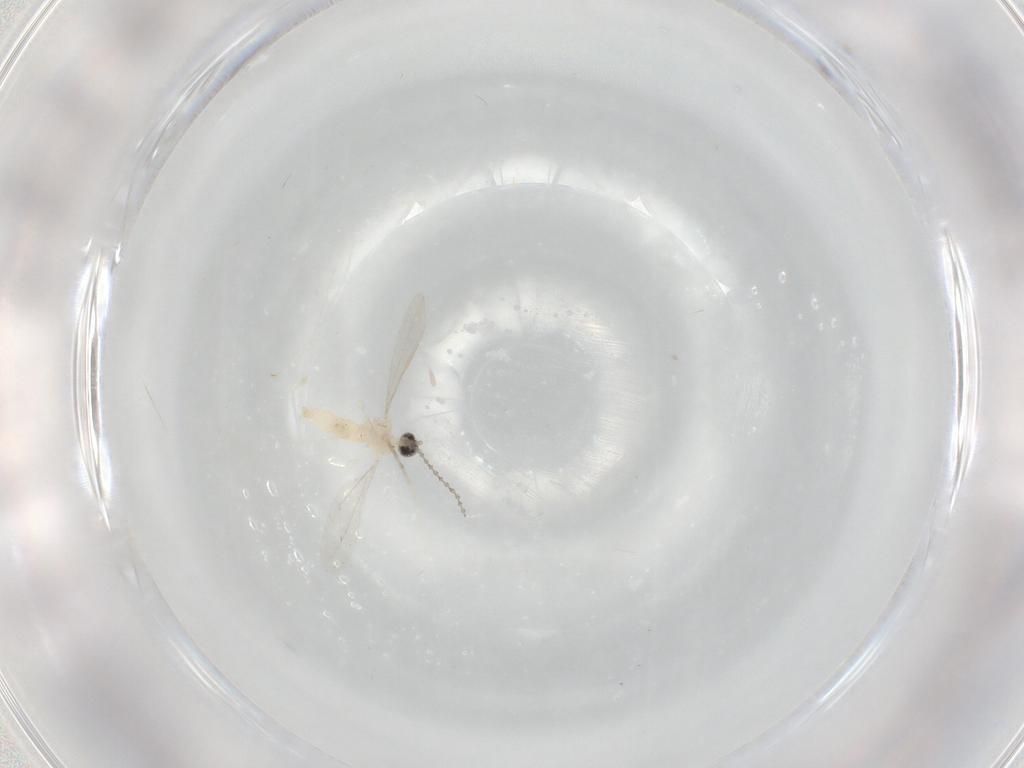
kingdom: Animalia
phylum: Arthropoda
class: Insecta
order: Diptera
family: Cecidomyiidae
